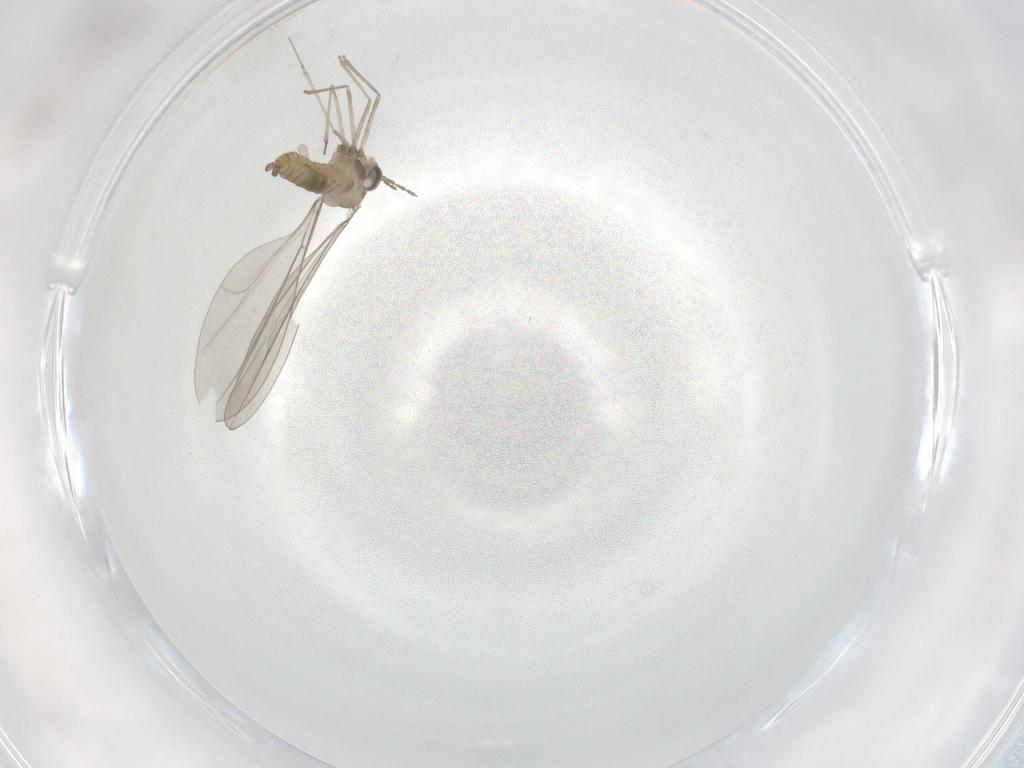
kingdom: Animalia
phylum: Arthropoda
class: Insecta
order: Diptera
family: Cecidomyiidae
